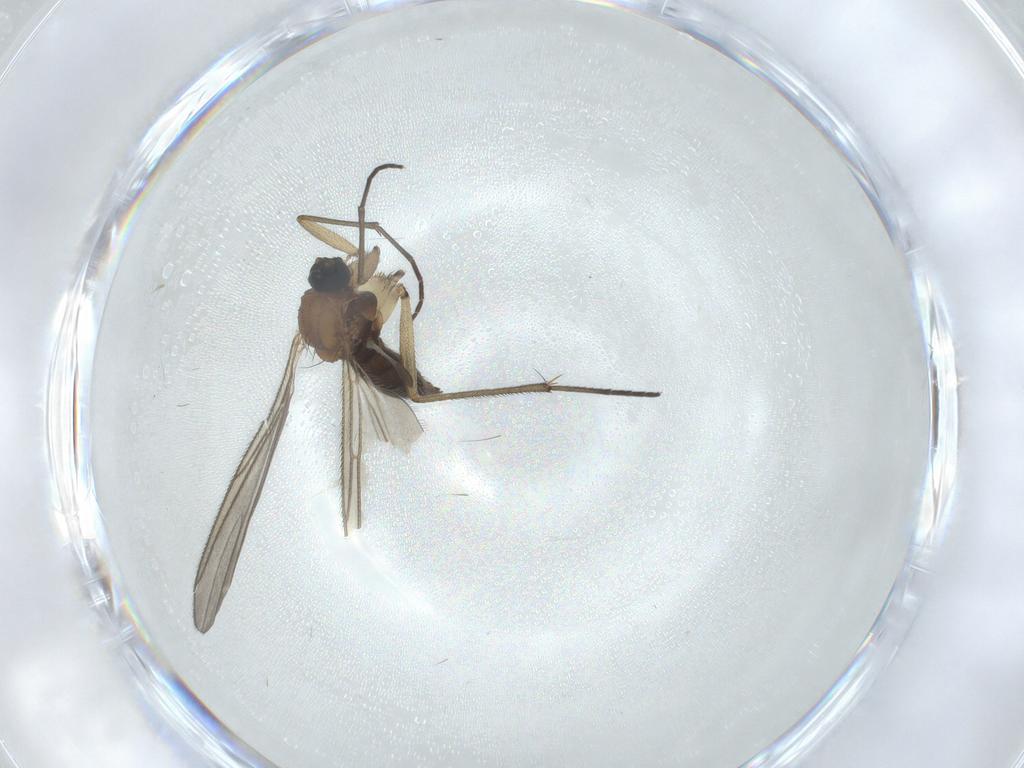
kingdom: Animalia
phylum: Arthropoda
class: Insecta
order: Diptera
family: Sciaridae
